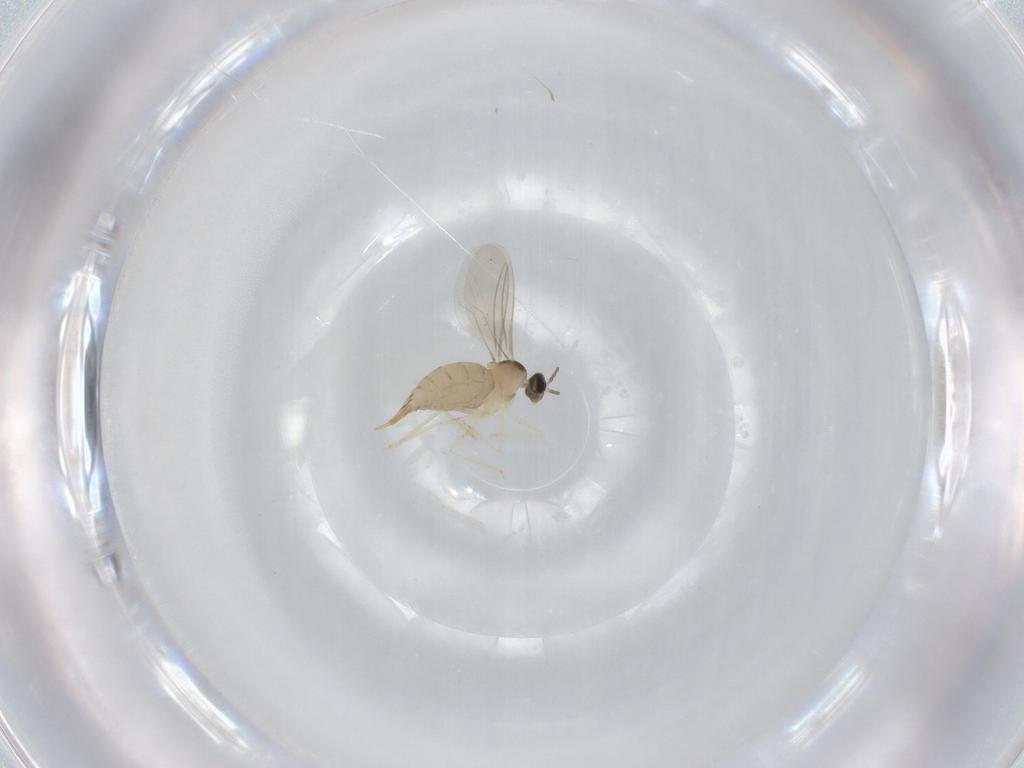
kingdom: Animalia
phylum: Arthropoda
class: Insecta
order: Diptera
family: Cecidomyiidae
